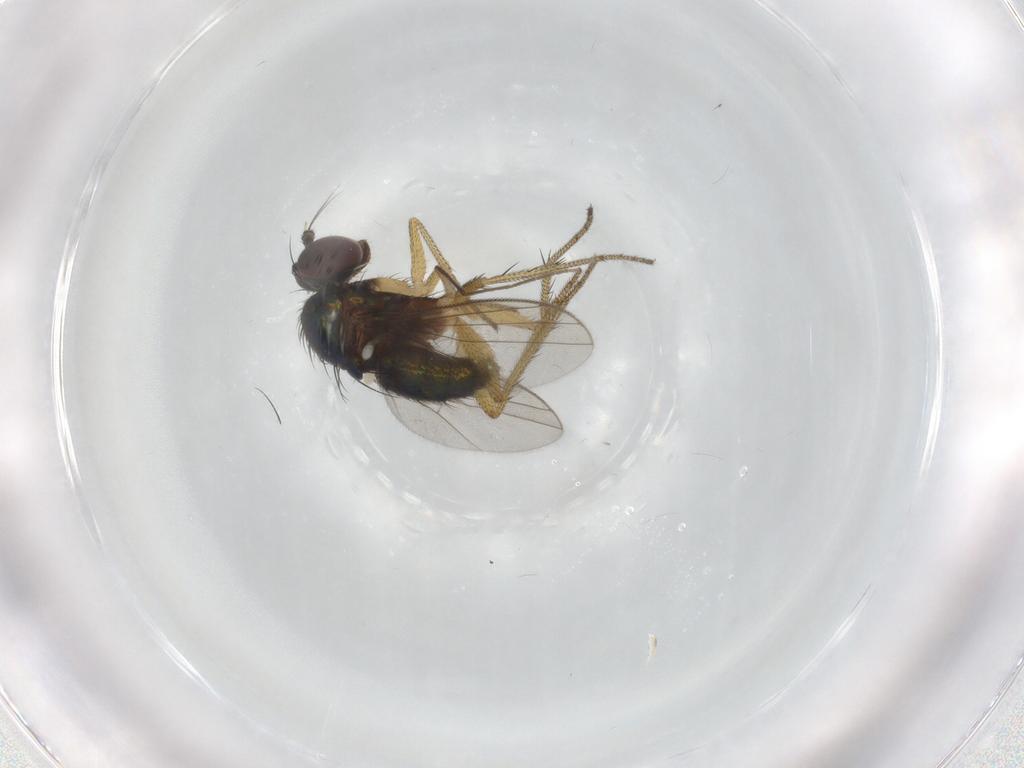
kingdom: Animalia
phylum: Arthropoda
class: Insecta
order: Diptera
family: Chironomidae
